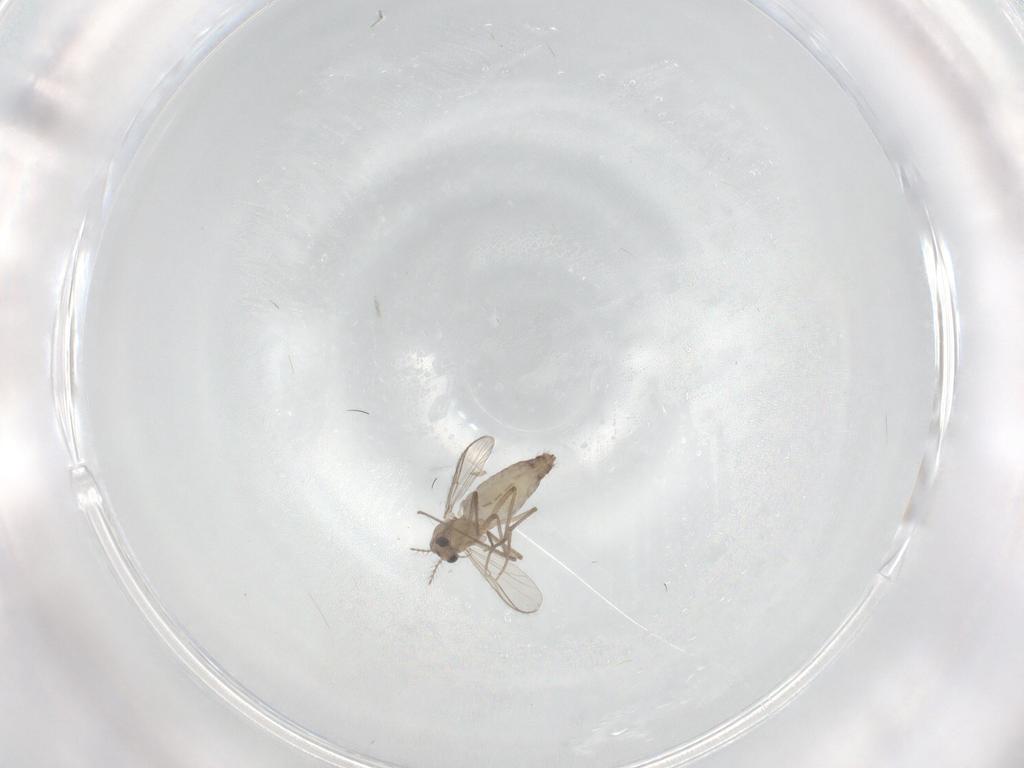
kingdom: Animalia
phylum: Arthropoda
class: Insecta
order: Diptera
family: Chironomidae
